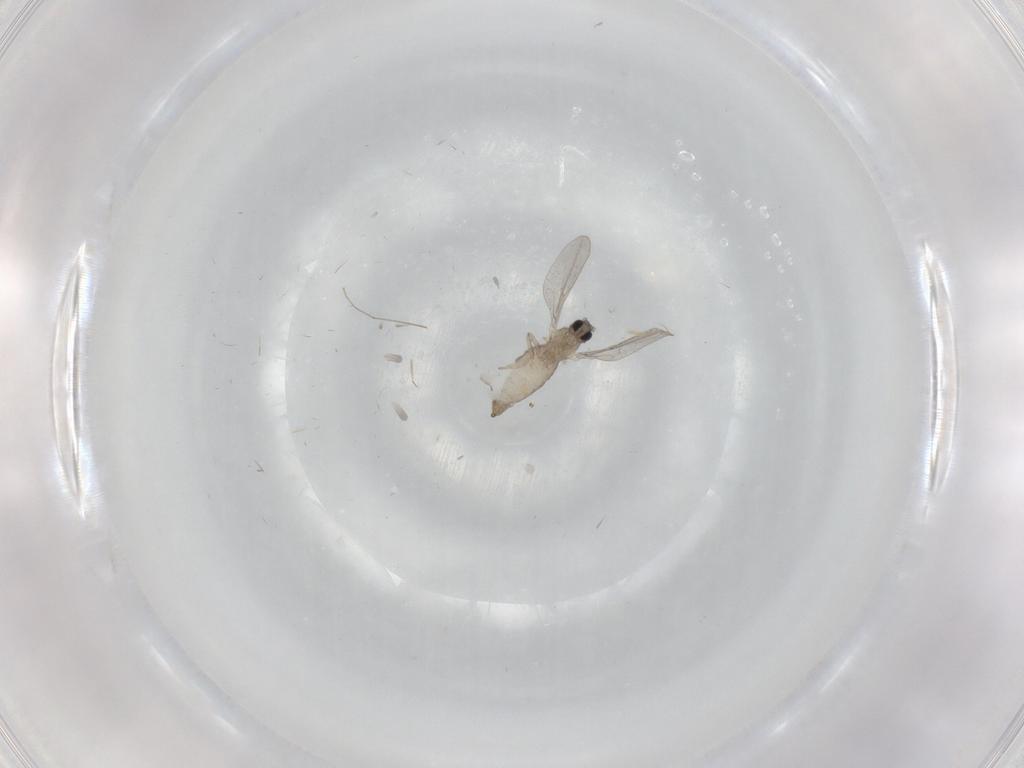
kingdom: Animalia
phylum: Arthropoda
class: Insecta
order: Diptera
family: Cecidomyiidae
